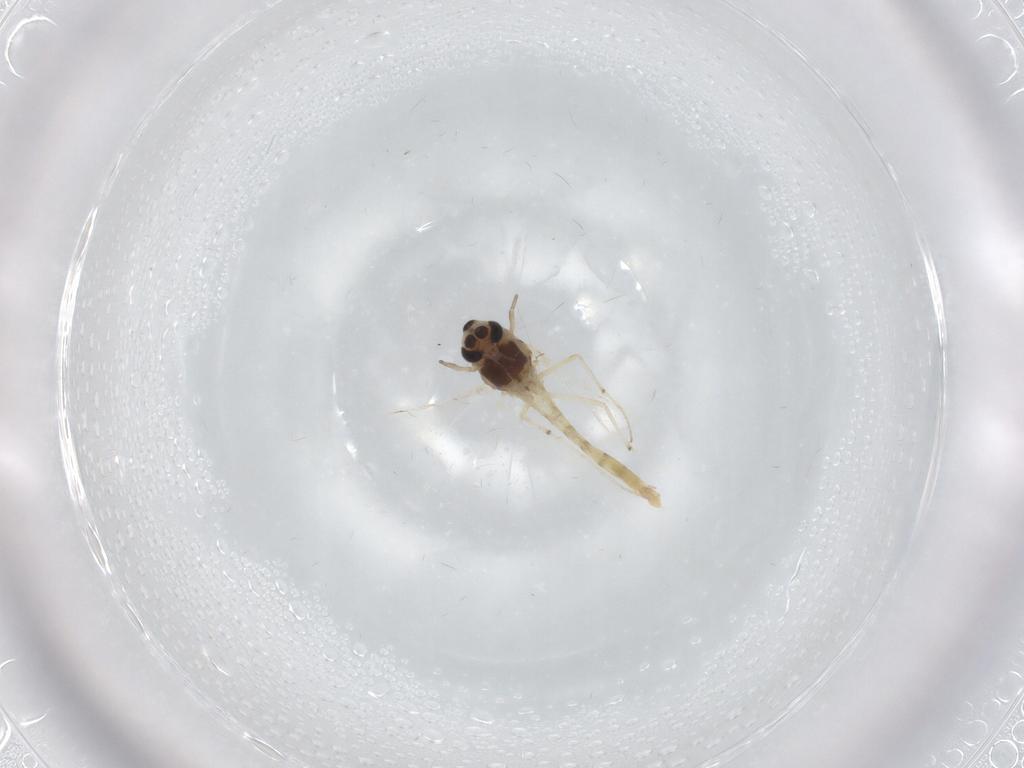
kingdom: Animalia
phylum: Arthropoda
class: Insecta
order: Diptera
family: Chironomidae
